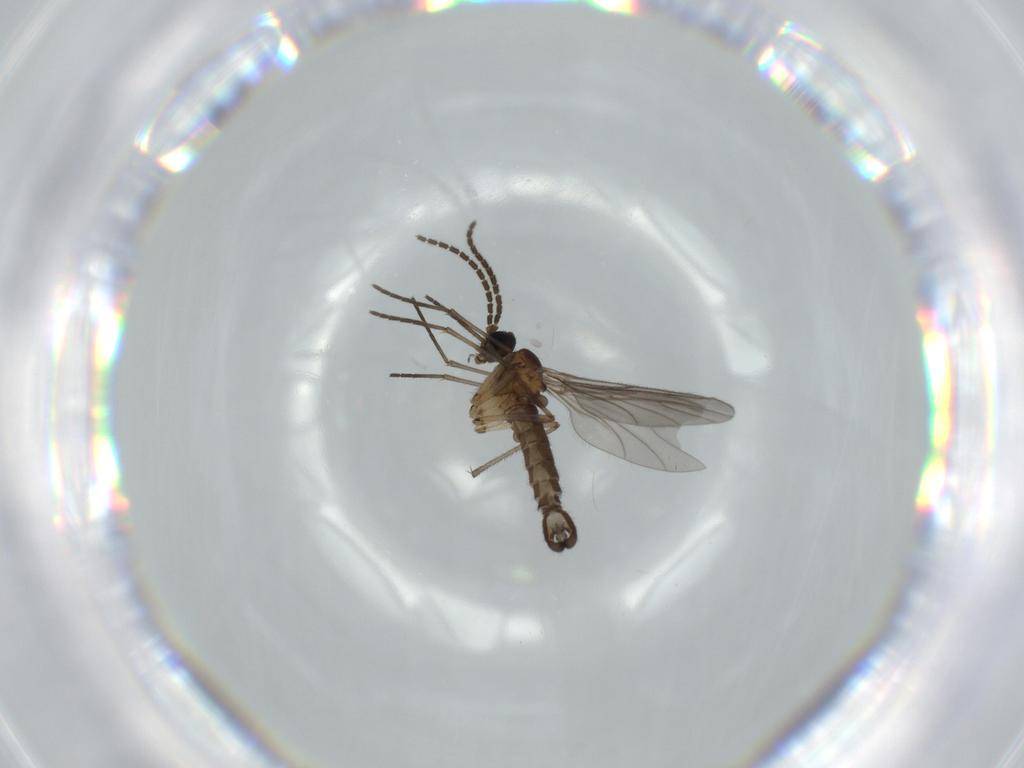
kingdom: Animalia
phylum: Arthropoda
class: Insecta
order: Diptera
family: Sciaridae
